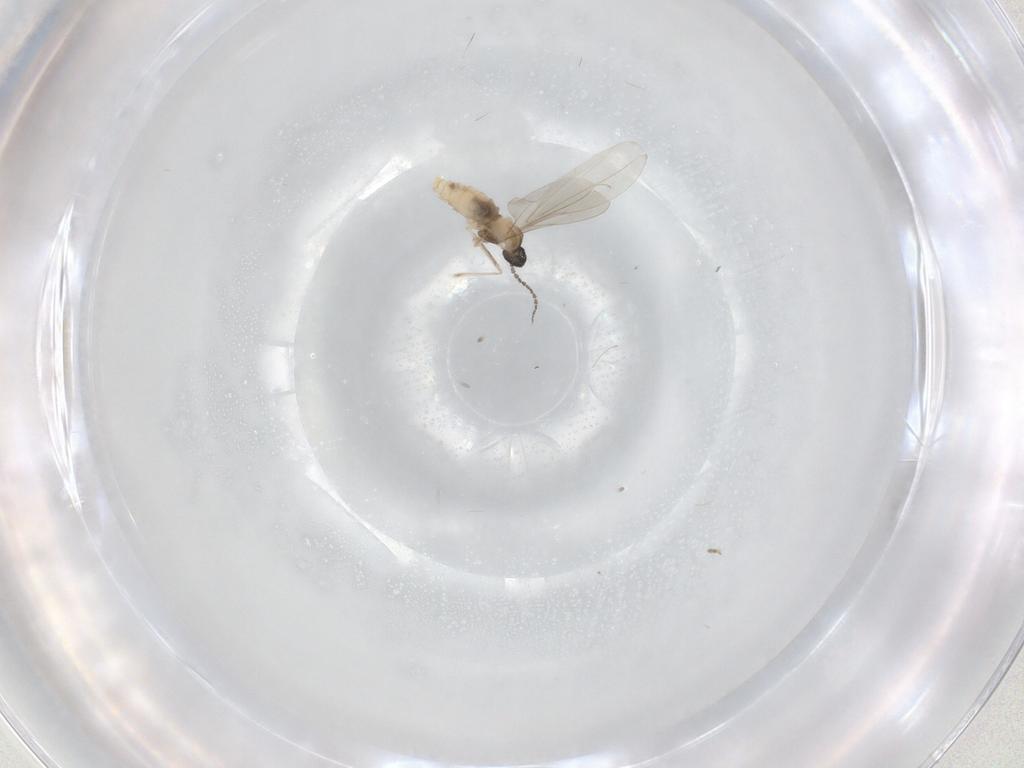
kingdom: Animalia
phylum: Arthropoda
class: Insecta
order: Diptera
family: Cecidomyiidae
